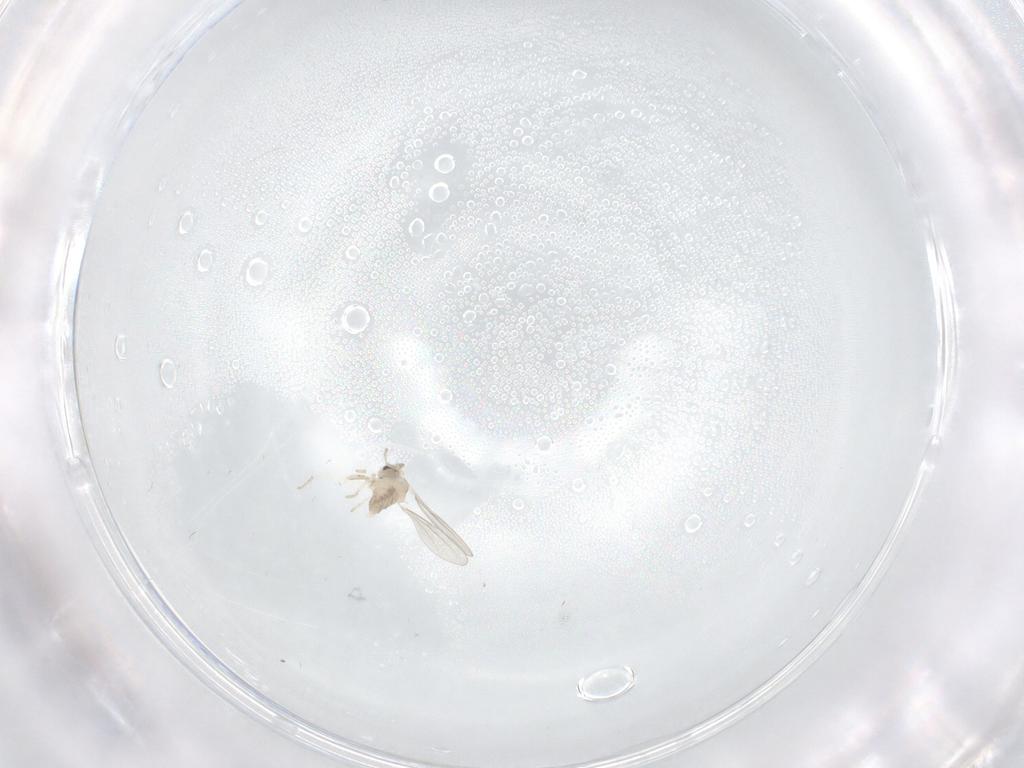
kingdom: Animalia
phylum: Arthropoda
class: Insecta
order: Diptera
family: Cecidomyiidae
